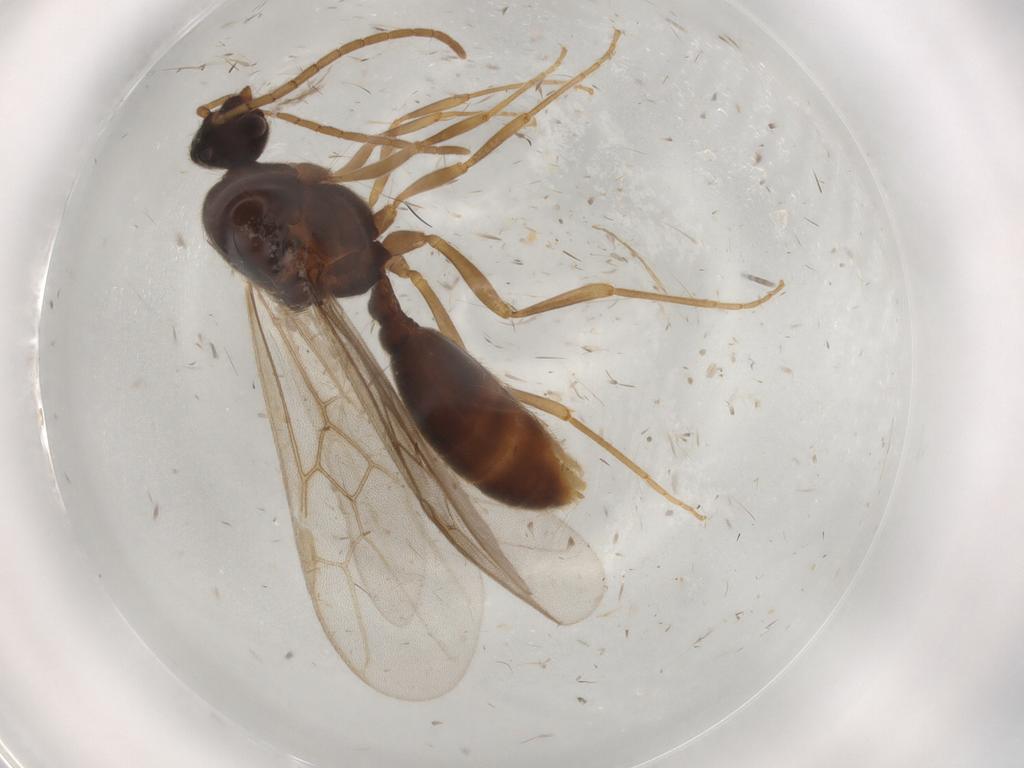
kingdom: Animalia
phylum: Arthropoda
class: Insecta
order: Hymenoptera
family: Formicidae
